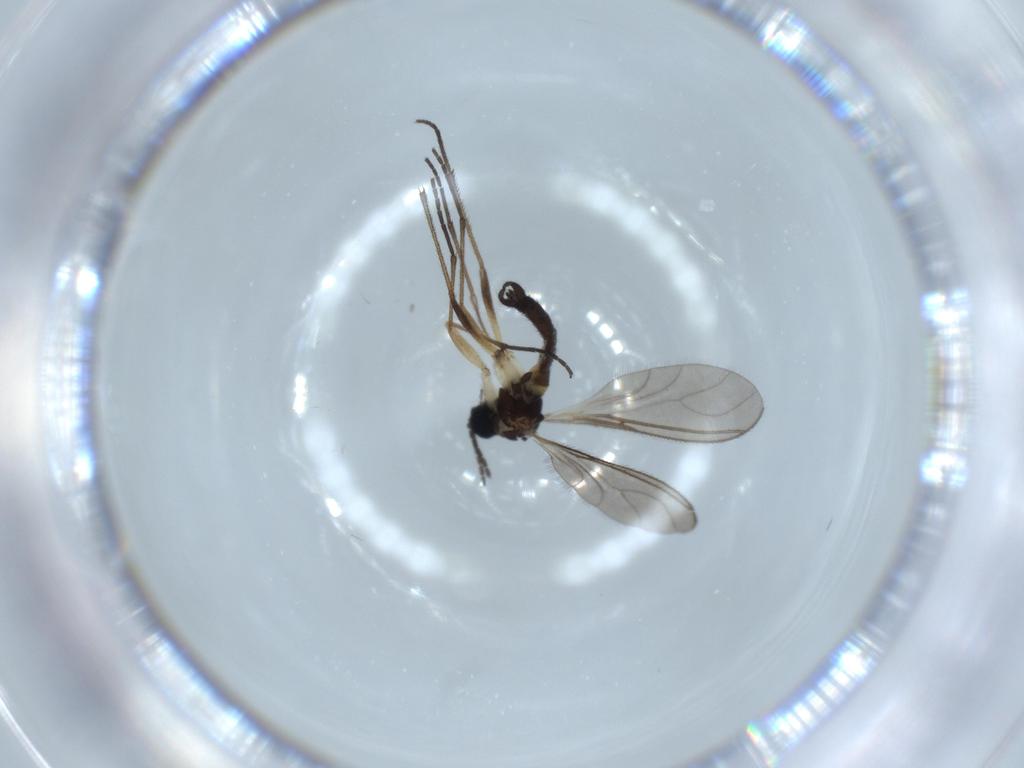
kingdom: Animalia
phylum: Arthropoda
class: Insecta
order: Diptera
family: Sciaridae
